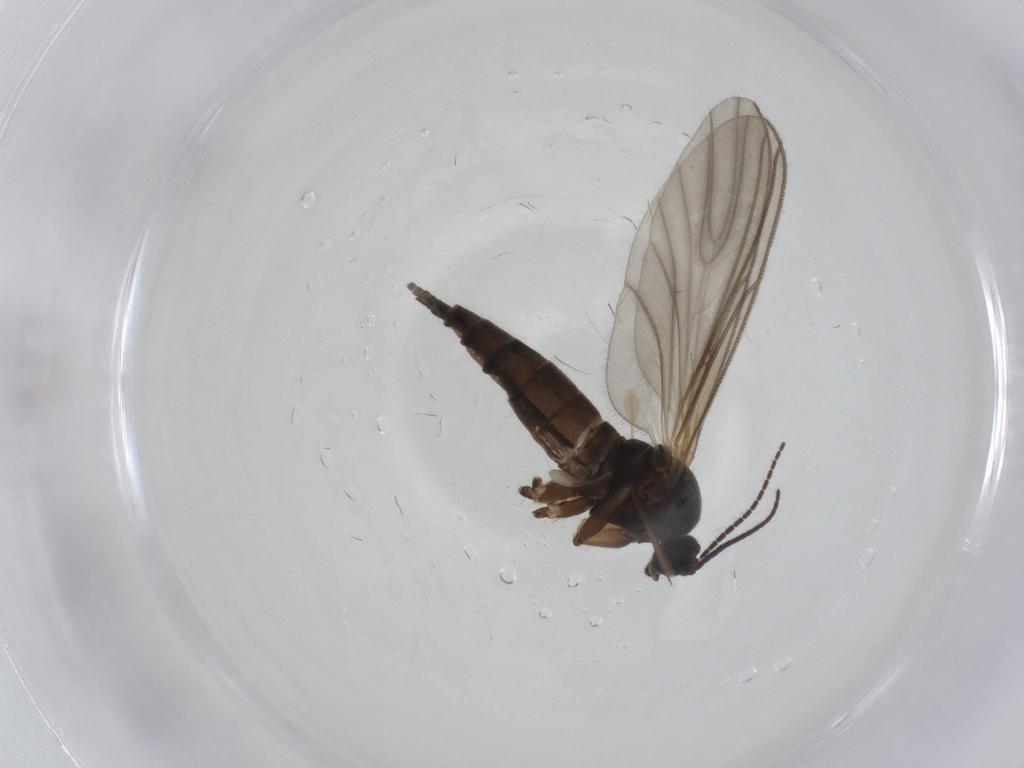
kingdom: Animalia
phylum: Arthropoda
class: Insecta
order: Diptera
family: Sciaridae
